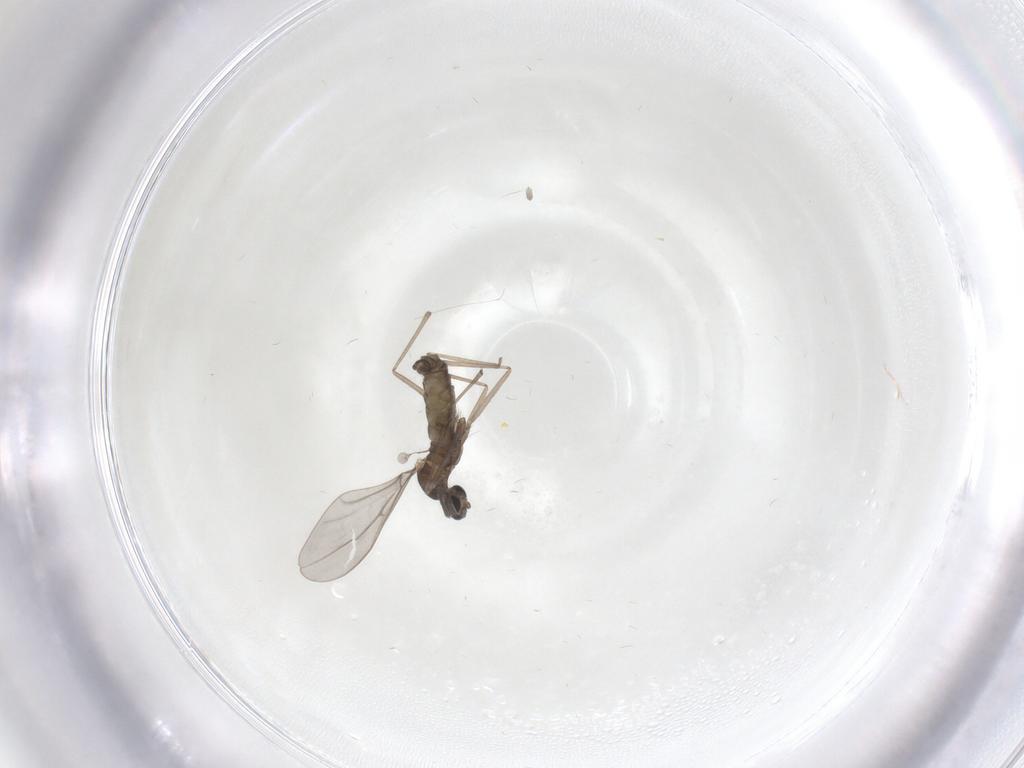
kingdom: Animalia
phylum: Arthropoda
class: Insecta
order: Diptera
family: Cecidomyiidae
